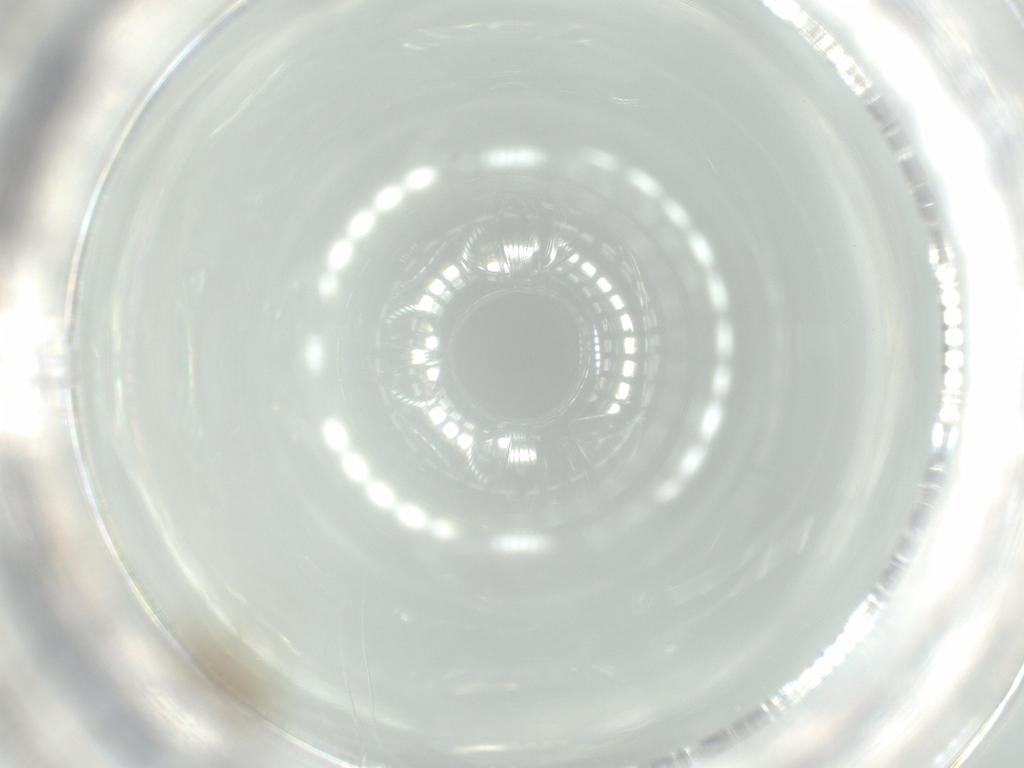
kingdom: Animalia
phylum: Arthropoda
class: Insecta
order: Diptera
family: Chironomidae
